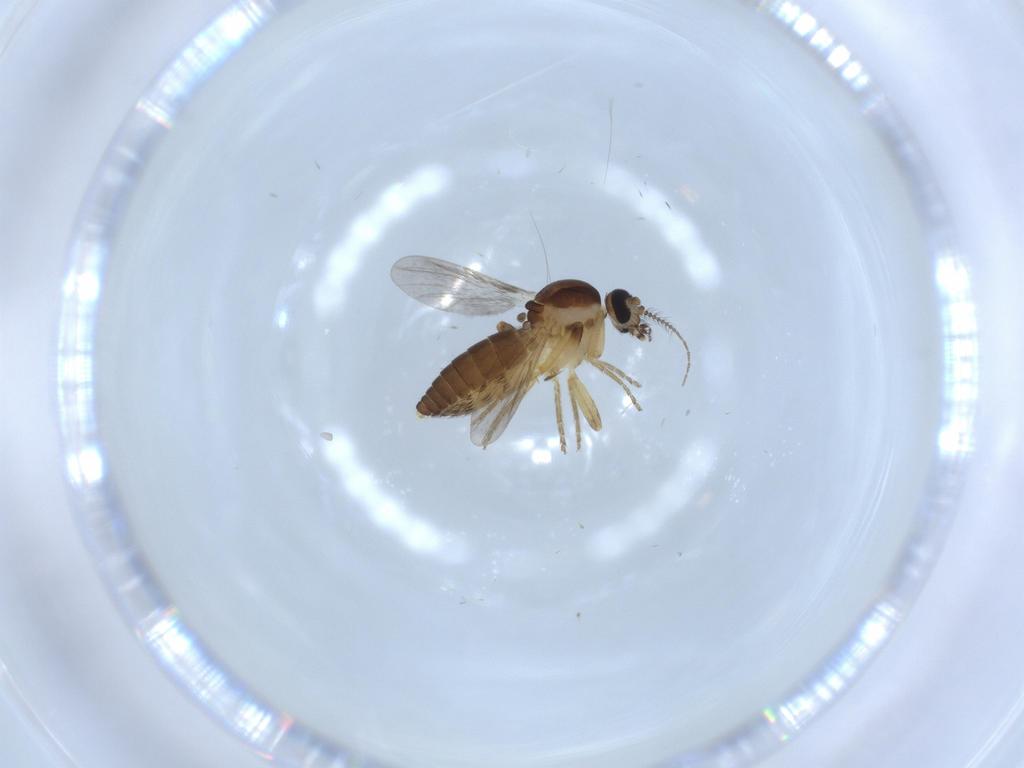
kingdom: Animalia
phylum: Arthropoda
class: Insecta
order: Diptera
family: Ceratopogonidae
